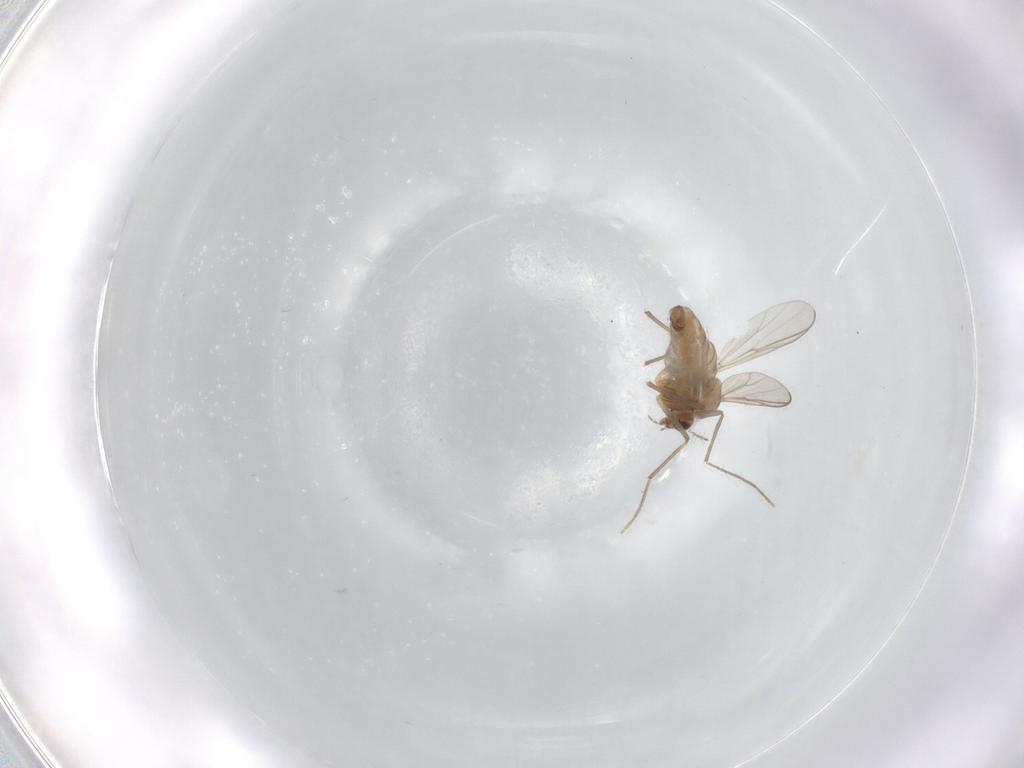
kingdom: Animalia
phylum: Arthropoda
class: Insecta
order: Diptera
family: Chironomidae
